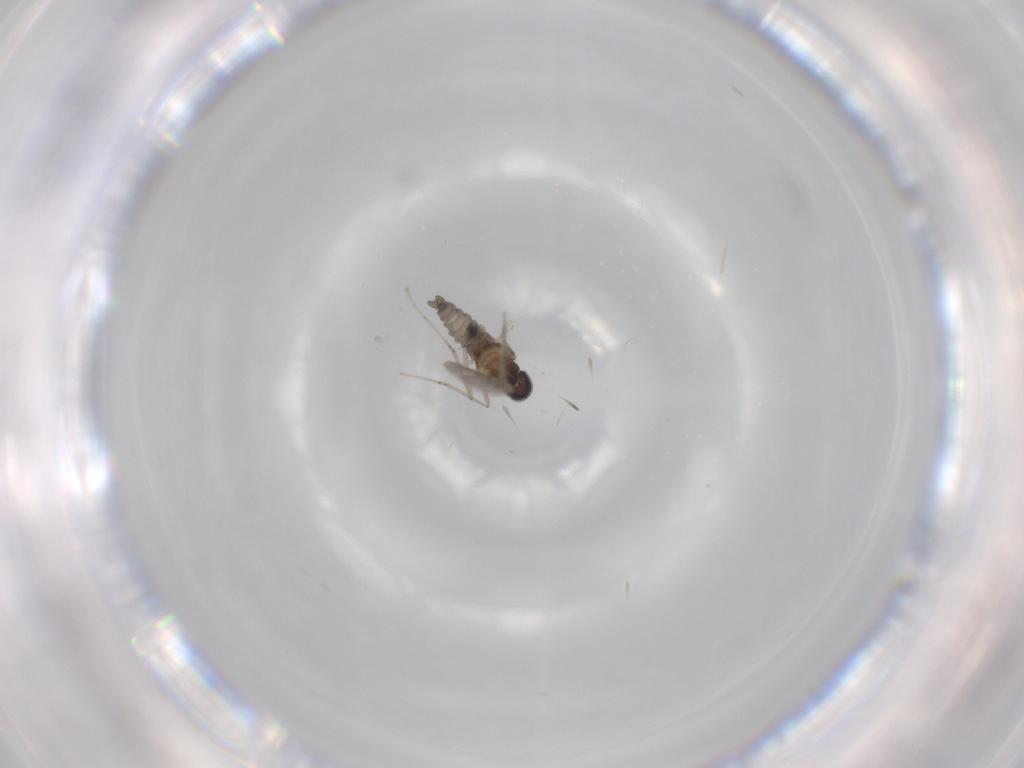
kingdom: Animalia
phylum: Arthropoda
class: Insecta
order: Diptera
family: Cecidomyiidae
